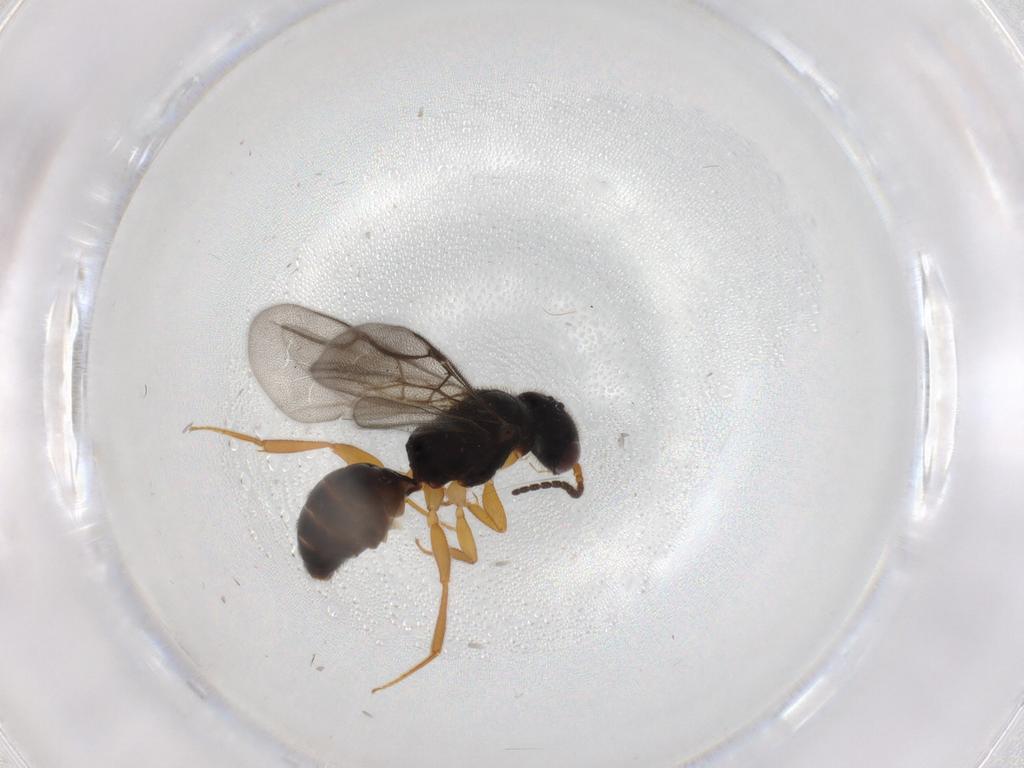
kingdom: Animalia
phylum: Arthropoda
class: Insecta
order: Hymenoptera
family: Bethylidae
